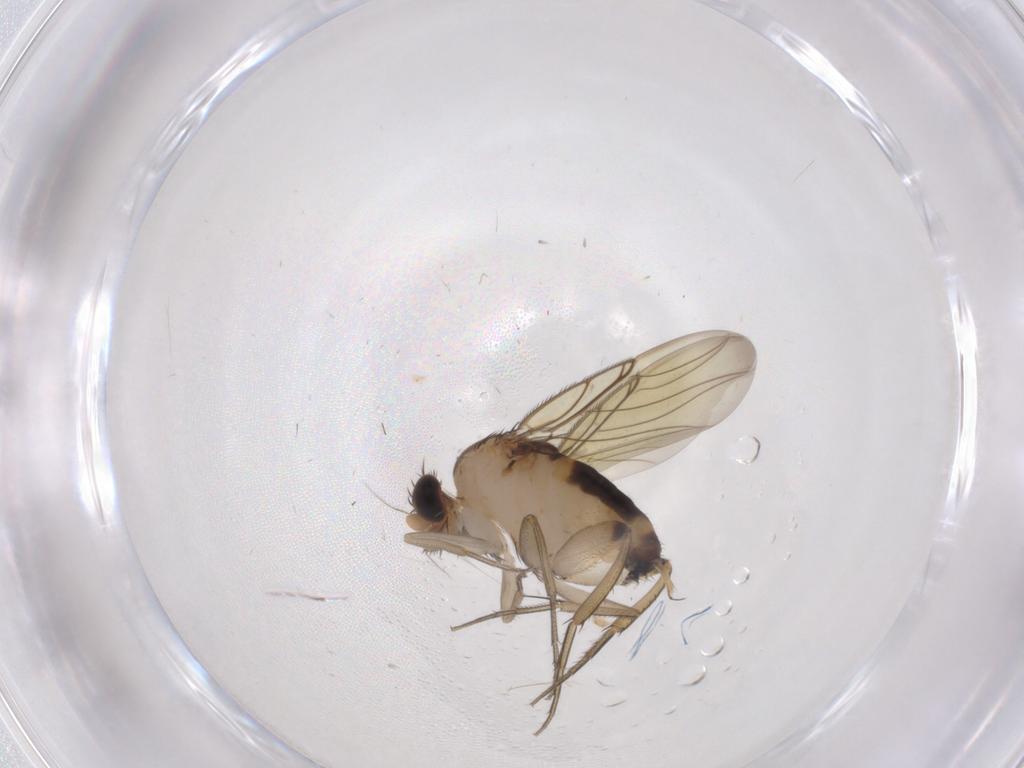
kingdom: Animalia
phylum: Arthropoda
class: Insecta
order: Diptera
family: Phoridae
